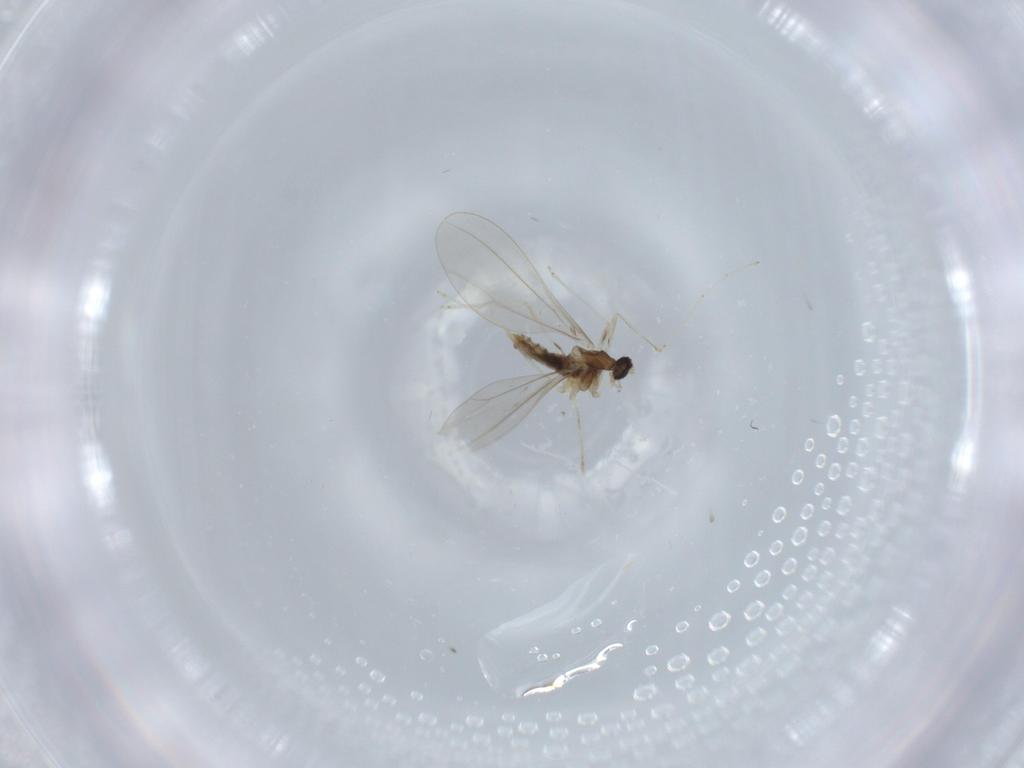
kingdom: Animalia
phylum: Arthropoda
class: Insecta
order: Diptera
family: Cecidomyiidae
